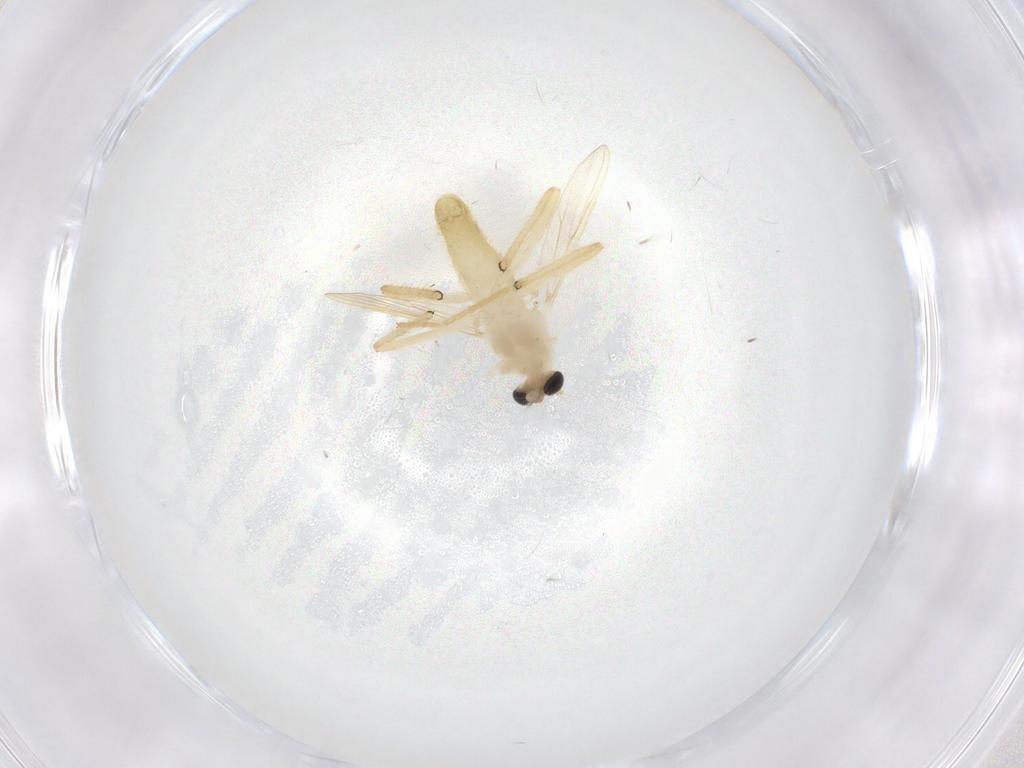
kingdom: Animalia
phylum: Arthropoda
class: Insecta
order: Diptera
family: Chironomidae
